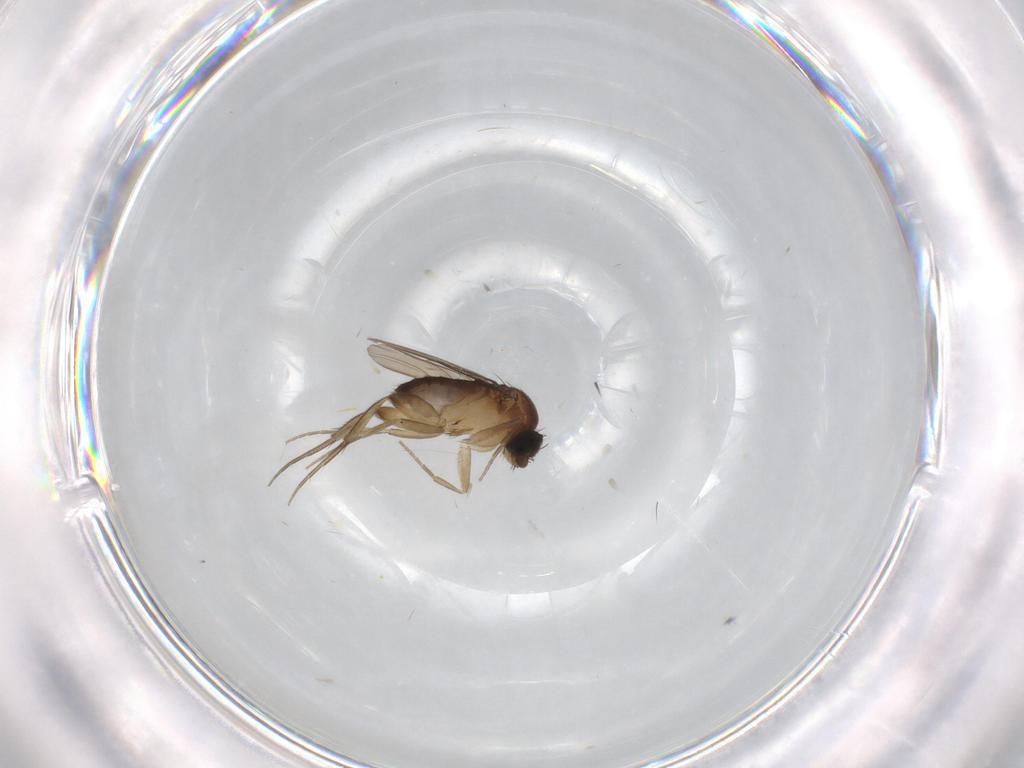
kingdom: Animalia
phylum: Arthropoda
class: Insecta
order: Diptera
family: Phoridae
